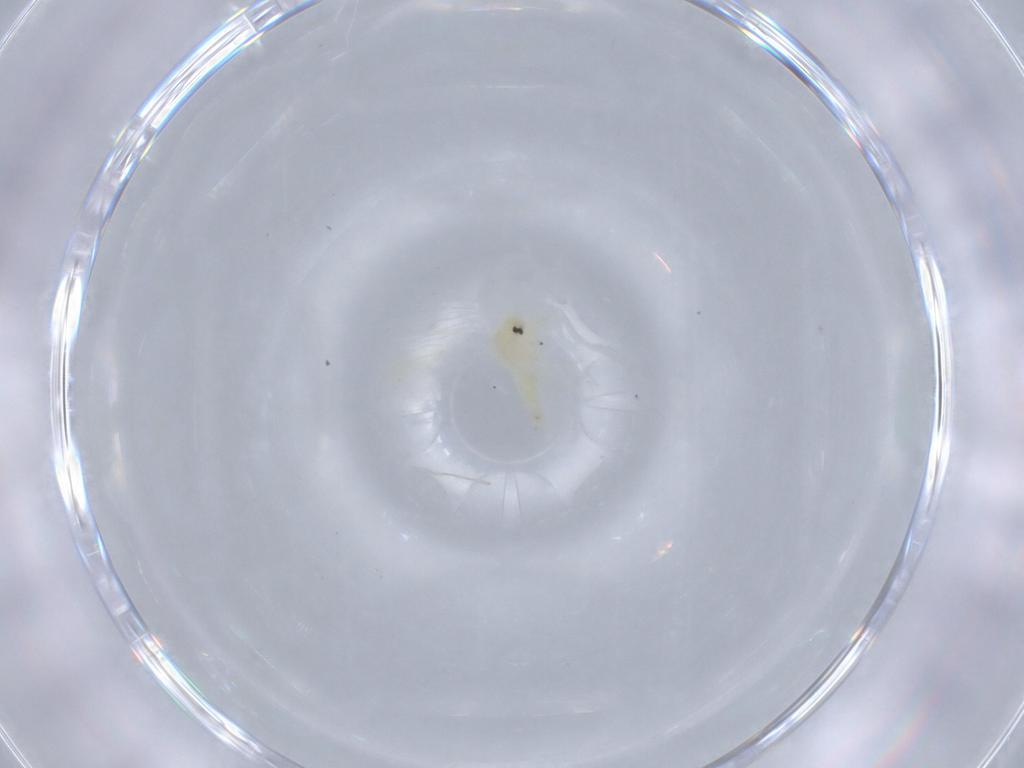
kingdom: Animalia
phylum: Arthropoda
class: Insecta
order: Hemiptera
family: Aleyrodidae
